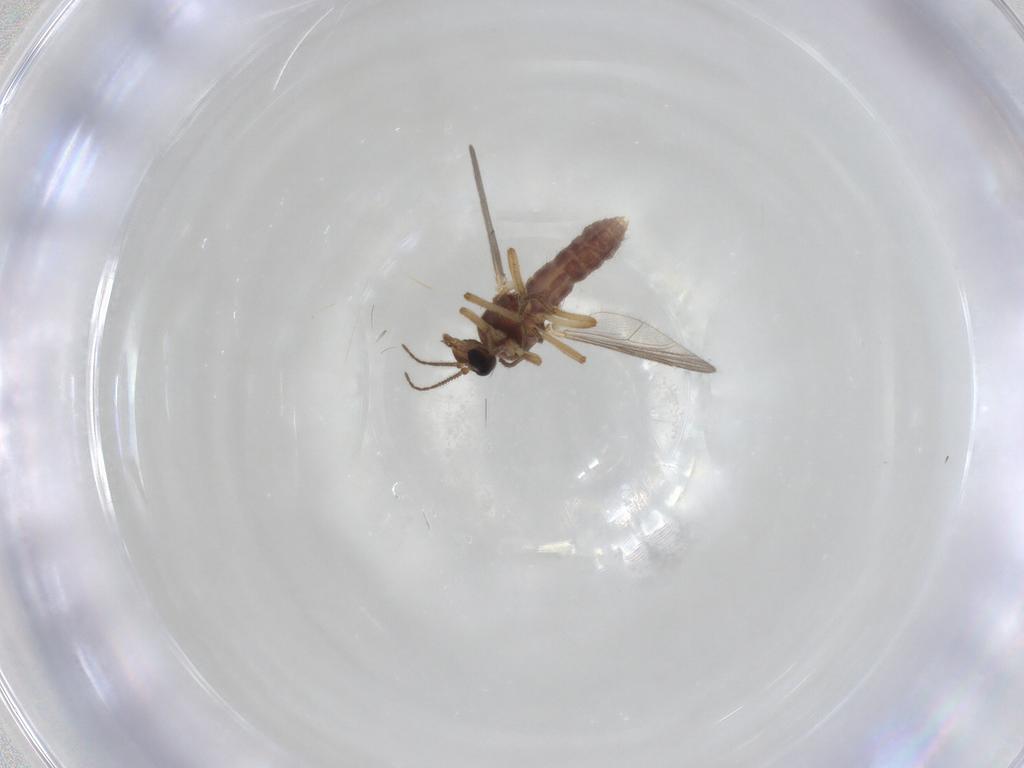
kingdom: Animalia
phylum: Arthropoda
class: Insecta
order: Diptera
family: Ceratopogonidae
